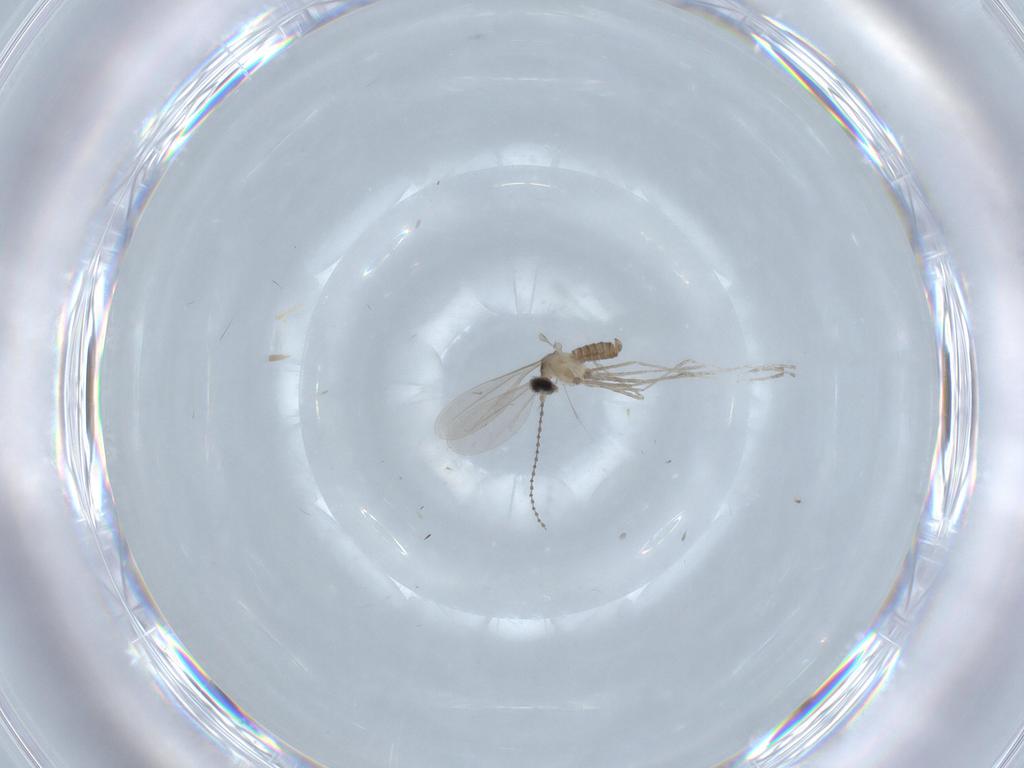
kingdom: Animalia
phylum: Arthropoda
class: Insecta
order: Diptera
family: Cecidomyiidae
